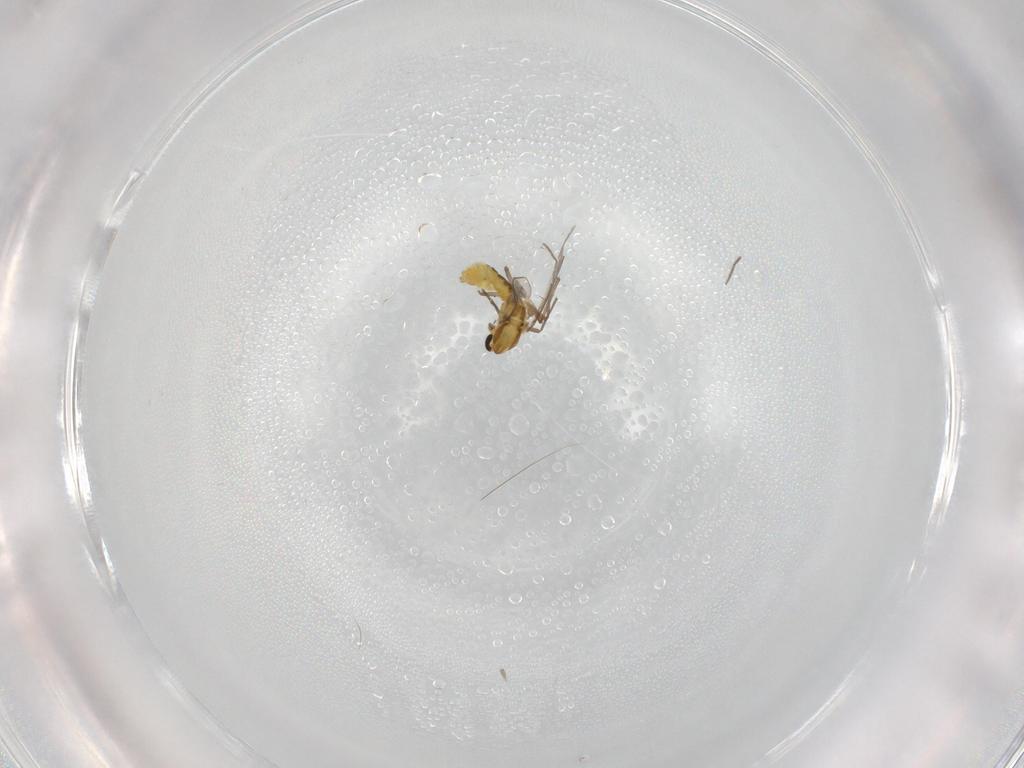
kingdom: Animalia
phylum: Arthropoda
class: Insecta
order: Diptera
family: Chironomidae
